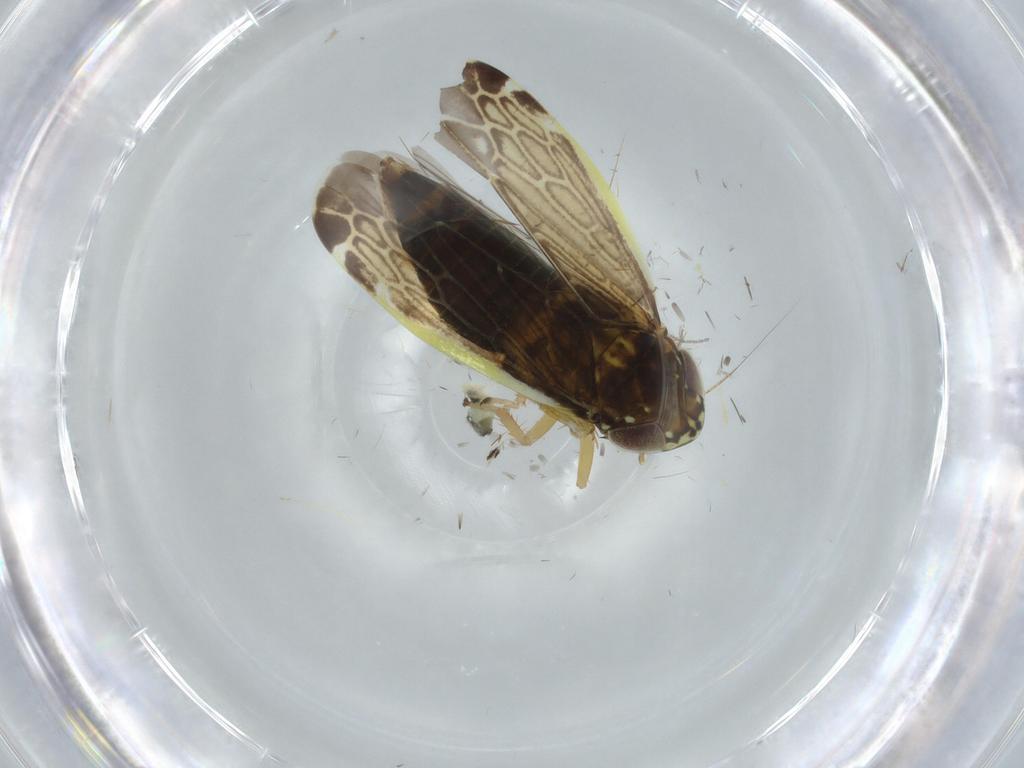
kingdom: Animalia
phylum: Arthropoda
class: Insecta
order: Hemiptera
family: Cicadellidae
